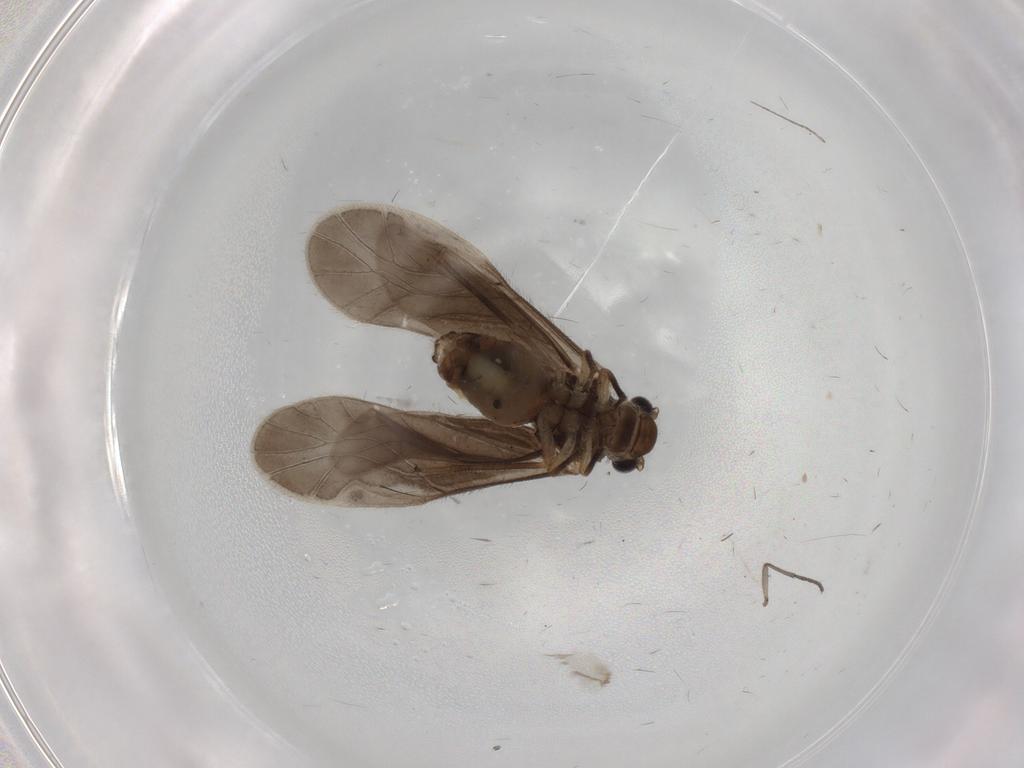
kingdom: Animalia
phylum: Arthropoda
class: Insecta
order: Psocodea
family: Caeciliusidae
